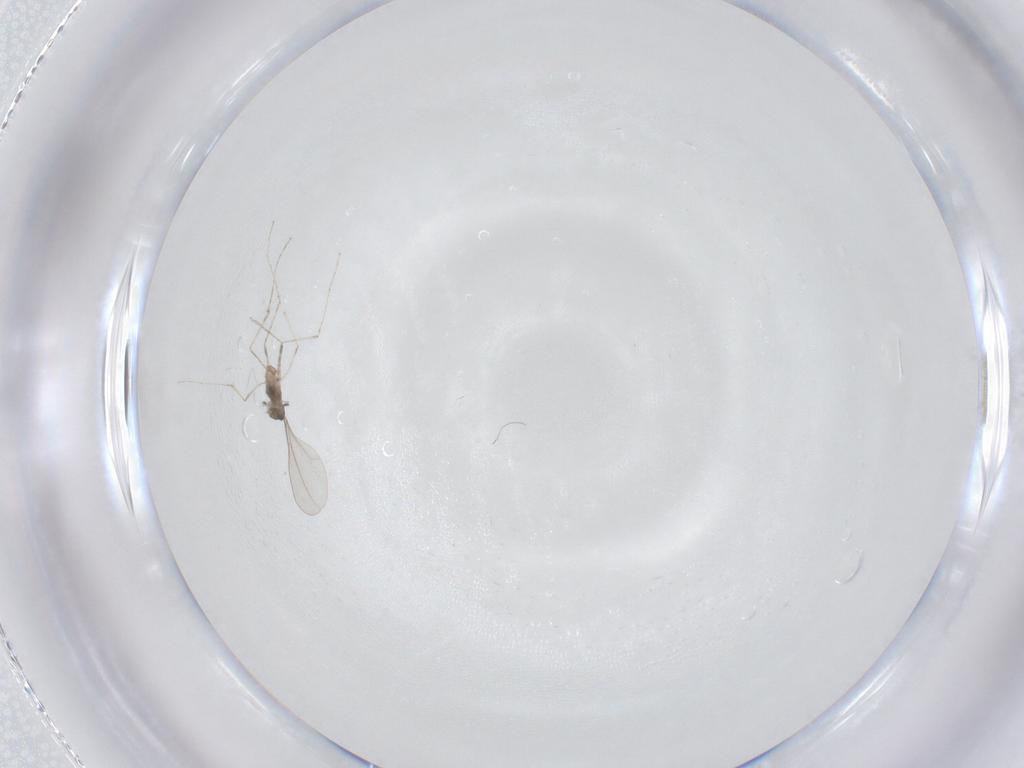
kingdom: Animalia
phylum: Arthropoda
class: Insecta
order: Diptera
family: Cecidomyiidae
